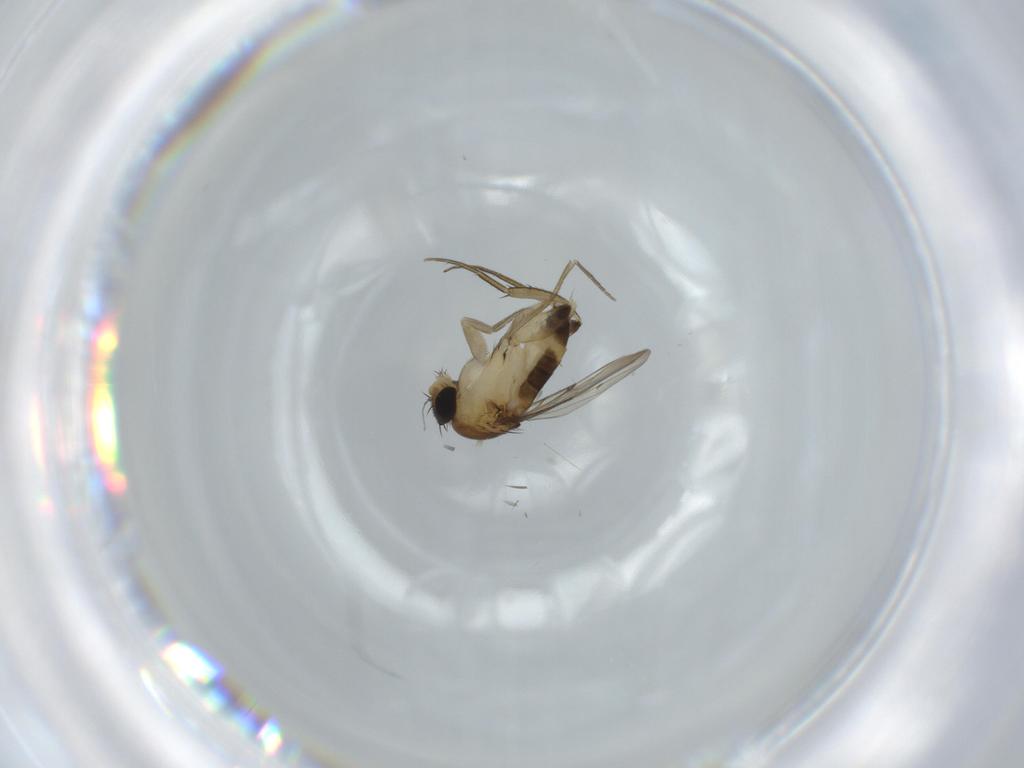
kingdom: Animalia
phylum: Arthropoda
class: Insecta
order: Diptera
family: Phoridae
